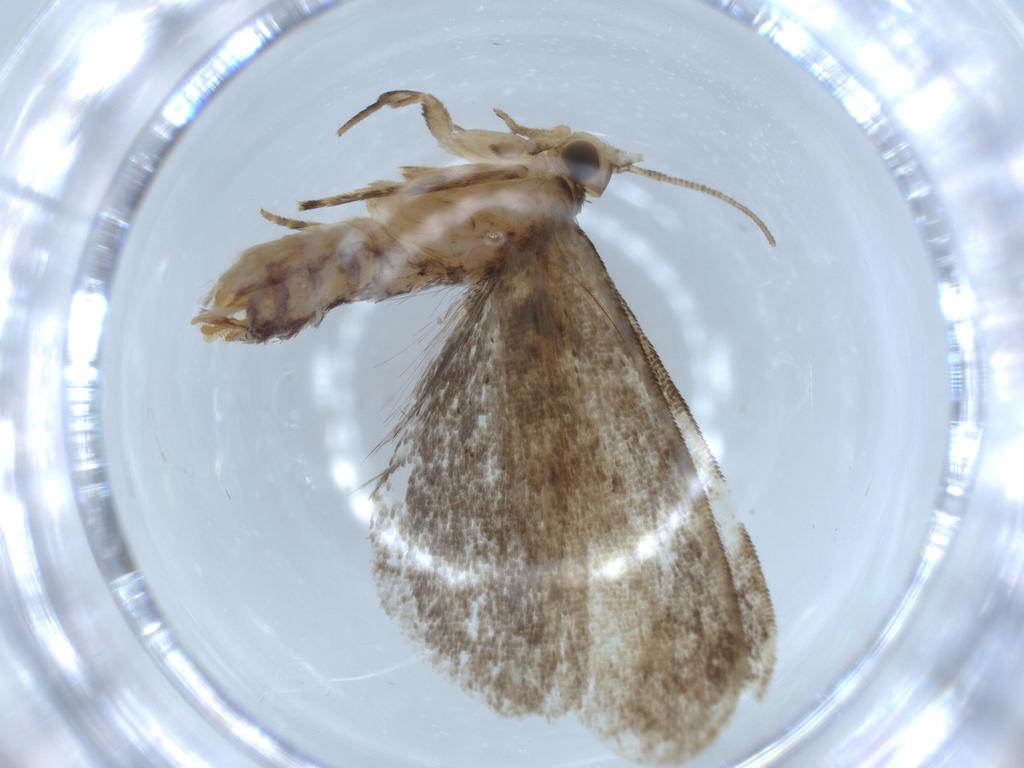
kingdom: Animalia
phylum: Arthropoda
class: Insecta
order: Lepidoptera
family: Dryadaulidae
